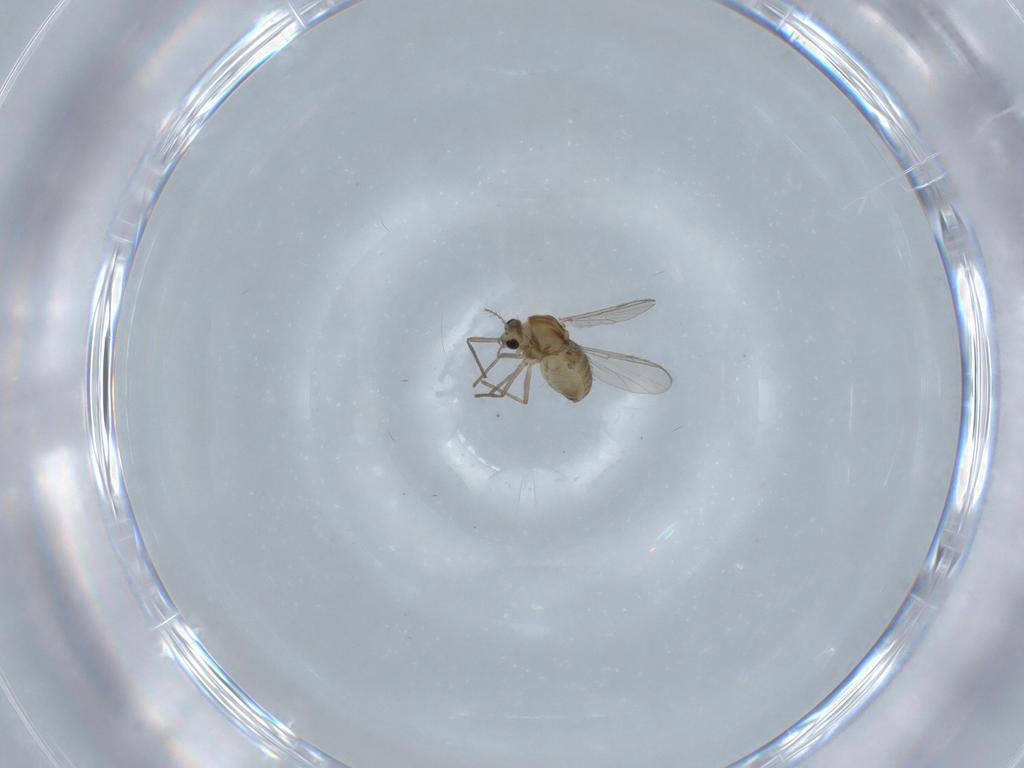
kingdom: Animalia
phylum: Arthropoda
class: Insecta
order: Diptera
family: Chironomidae
